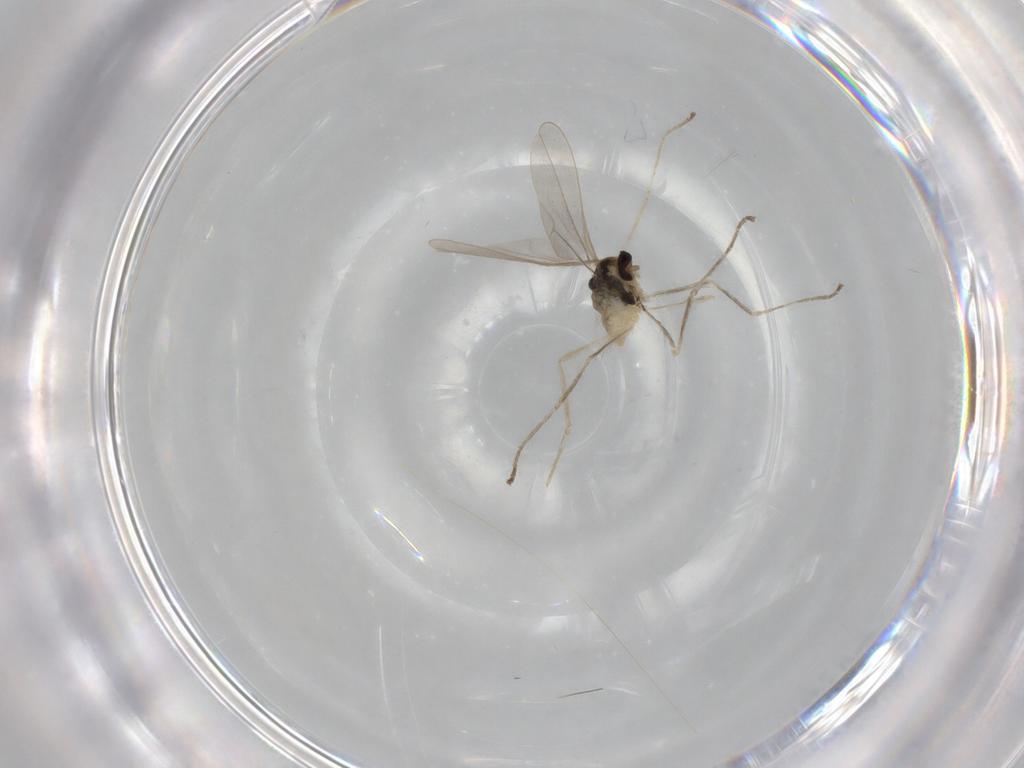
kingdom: Animalia
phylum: Arthropoda
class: Insecta
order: Diptera
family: Cecidomyiidae
